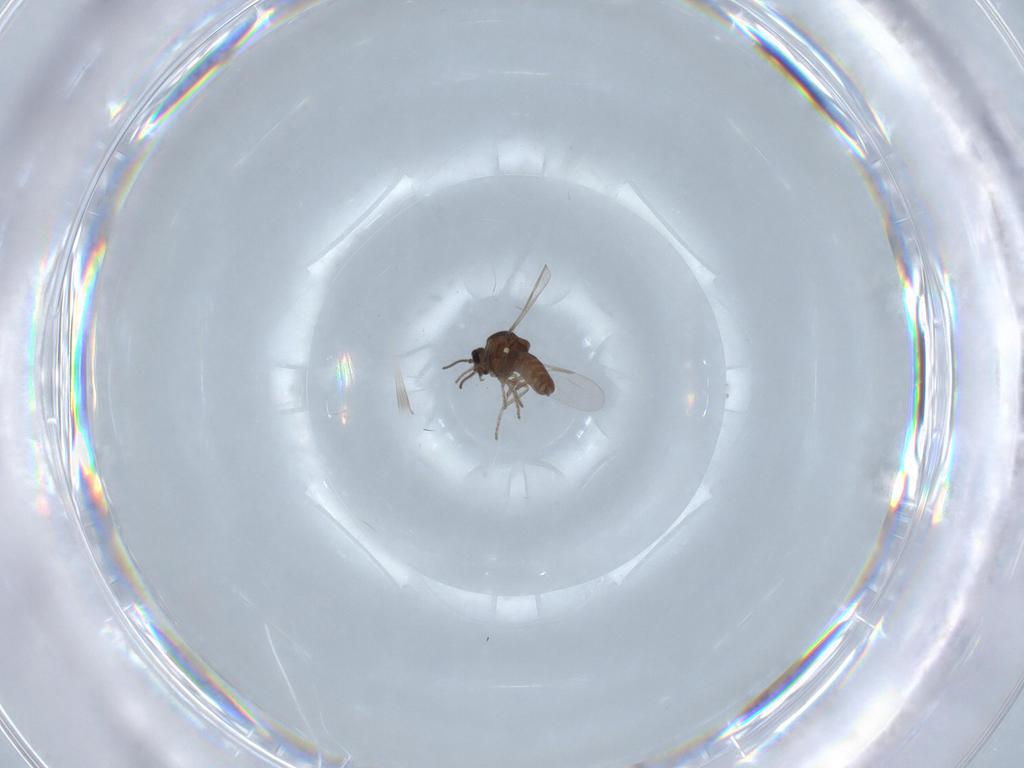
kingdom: Animalia
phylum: Arthropoda
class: Insecta
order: Diptera
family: Ceratopogonidae
